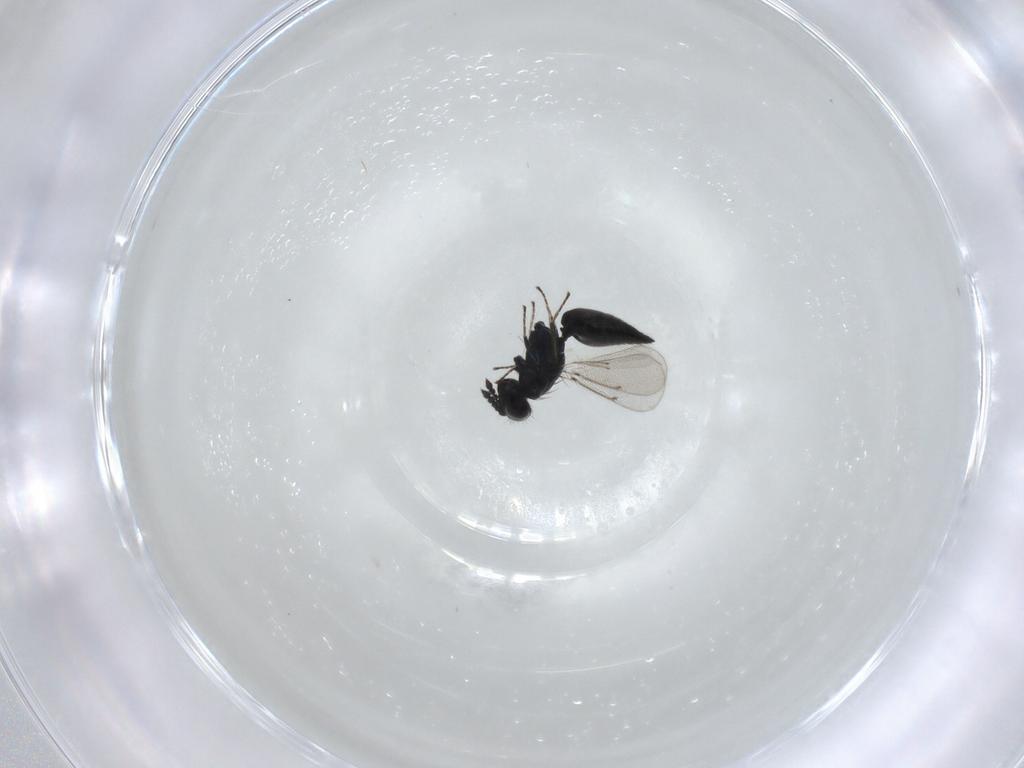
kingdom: Animalia
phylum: Arthropoda
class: Insecta
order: Hymenoptera
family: Eulophidae
